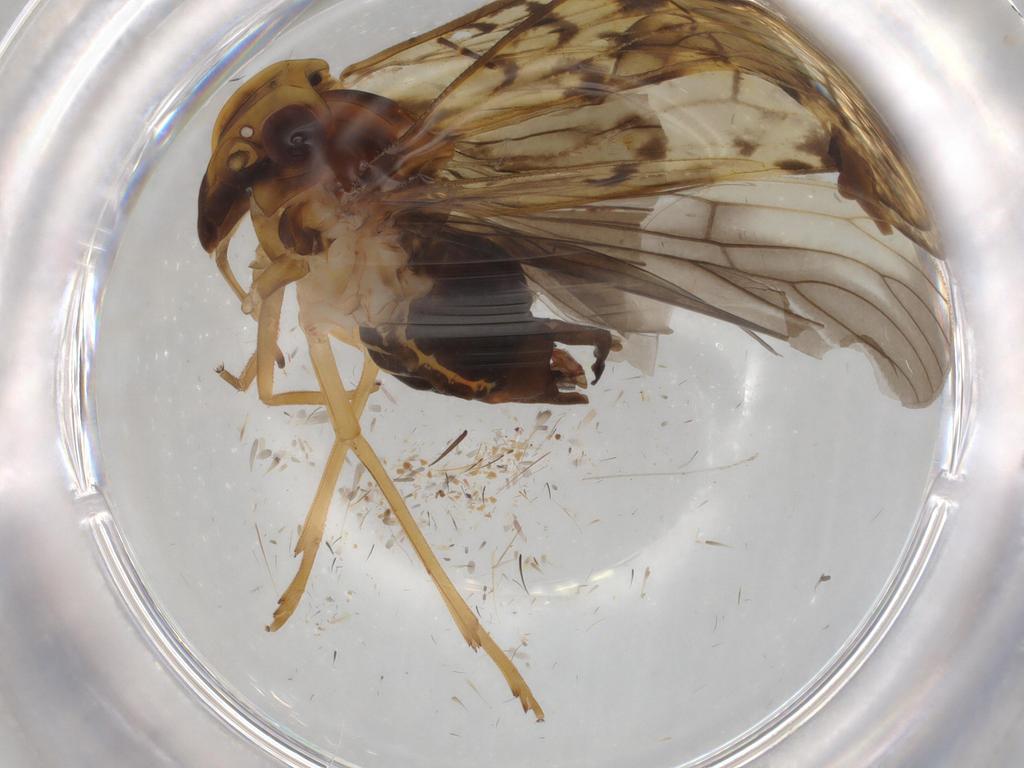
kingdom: Animalia
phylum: Arthropoda
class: Insecta
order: Hemiptera
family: Cixiidae
